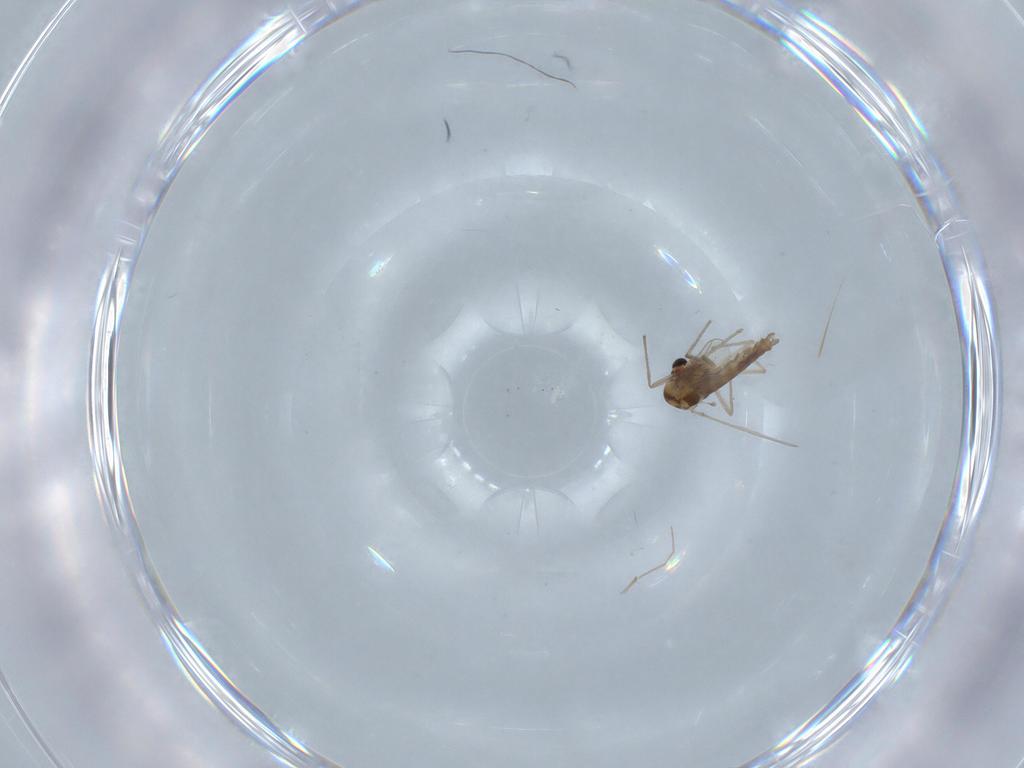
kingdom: Animalia
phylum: Arthropoda
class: Insecta
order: Diptera
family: Chironomidae
